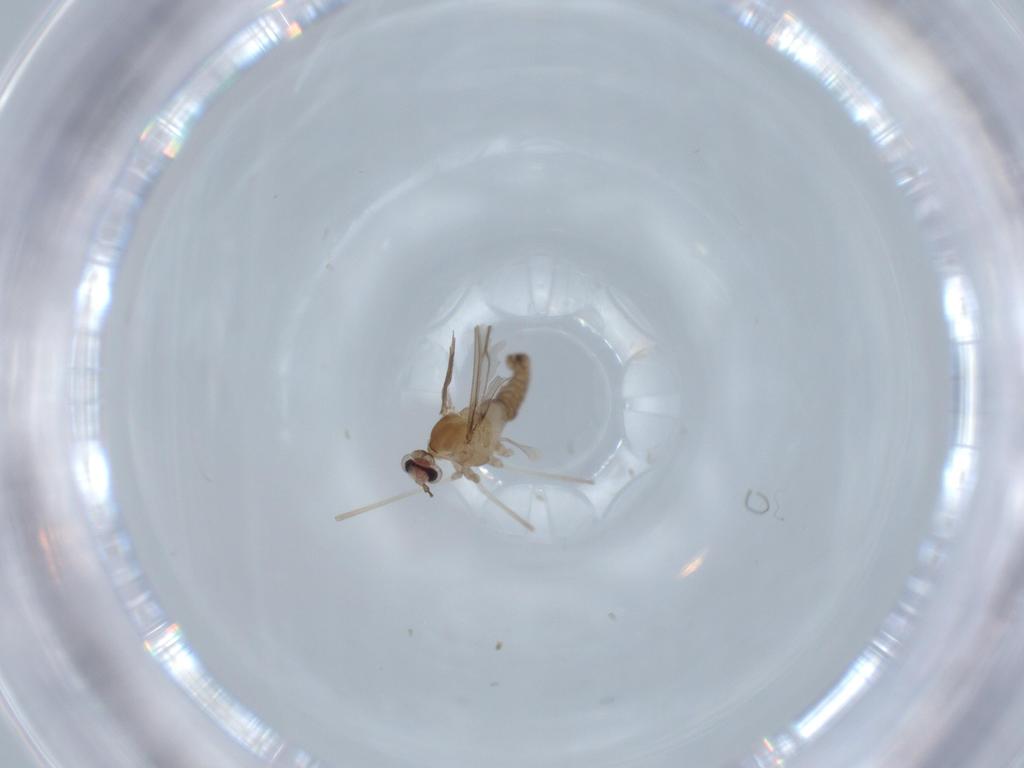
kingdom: Animalia
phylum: Arthropoda
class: Insecta
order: Diptera
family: Cecidomyiidae
